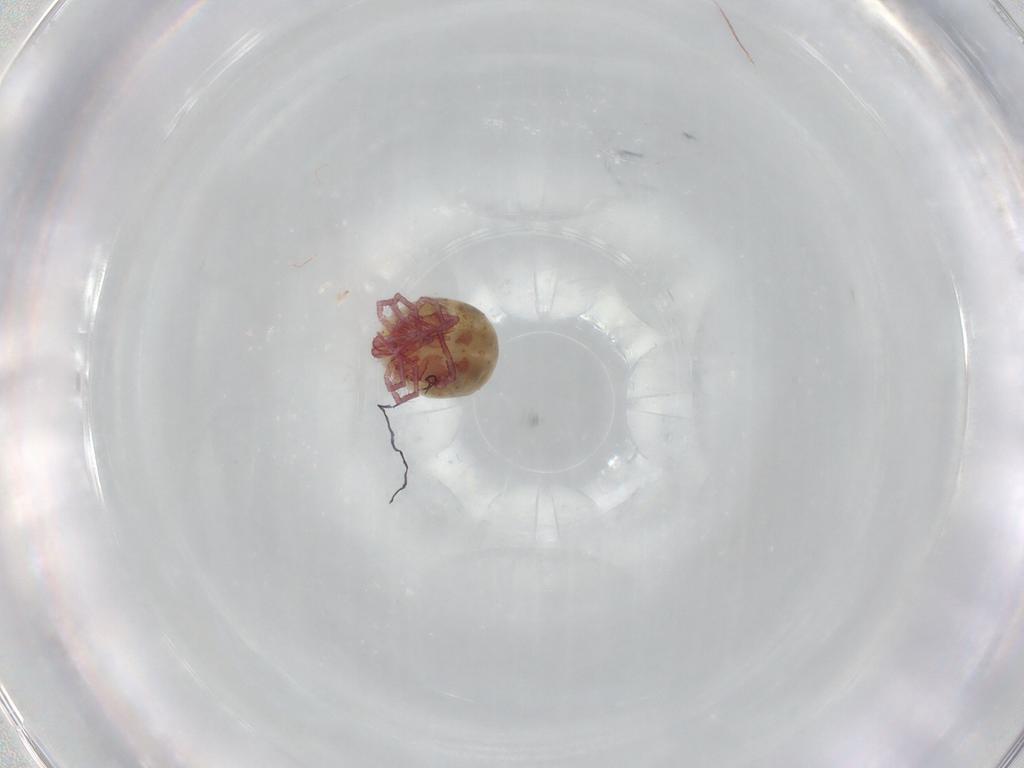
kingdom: Animalia
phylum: Arthropoda
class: Arachnida
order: Trombidiformes
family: Pionidae
